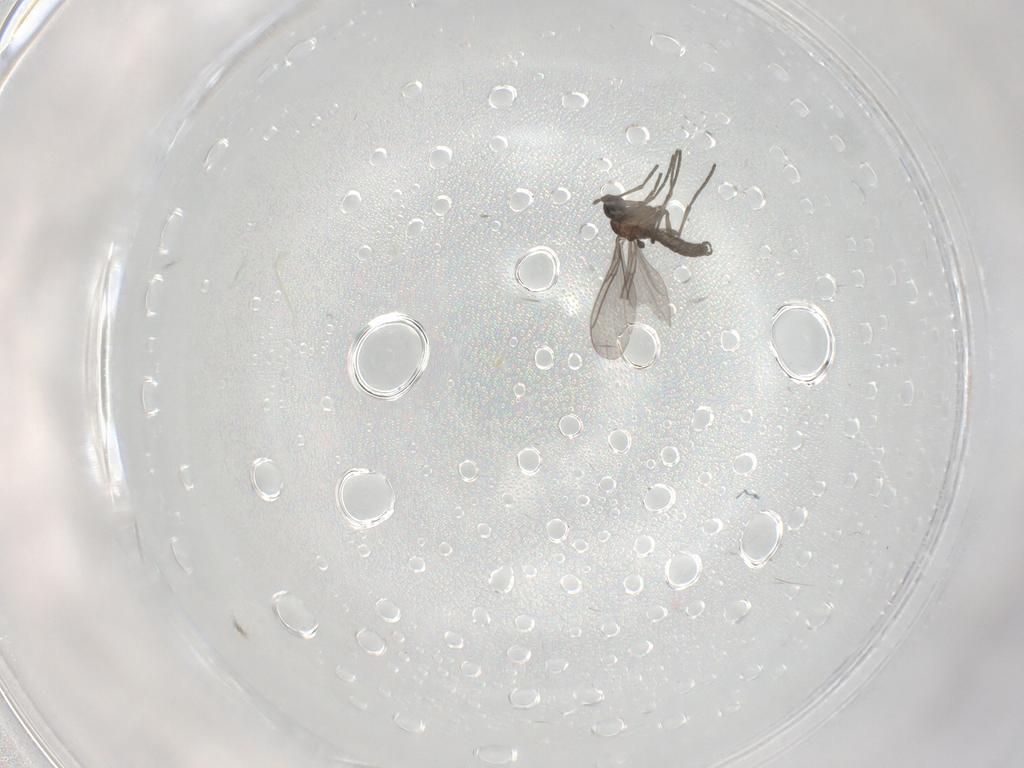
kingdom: Animalia
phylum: Arthropoda
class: Insecta
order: Diptera
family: Sciaridae
